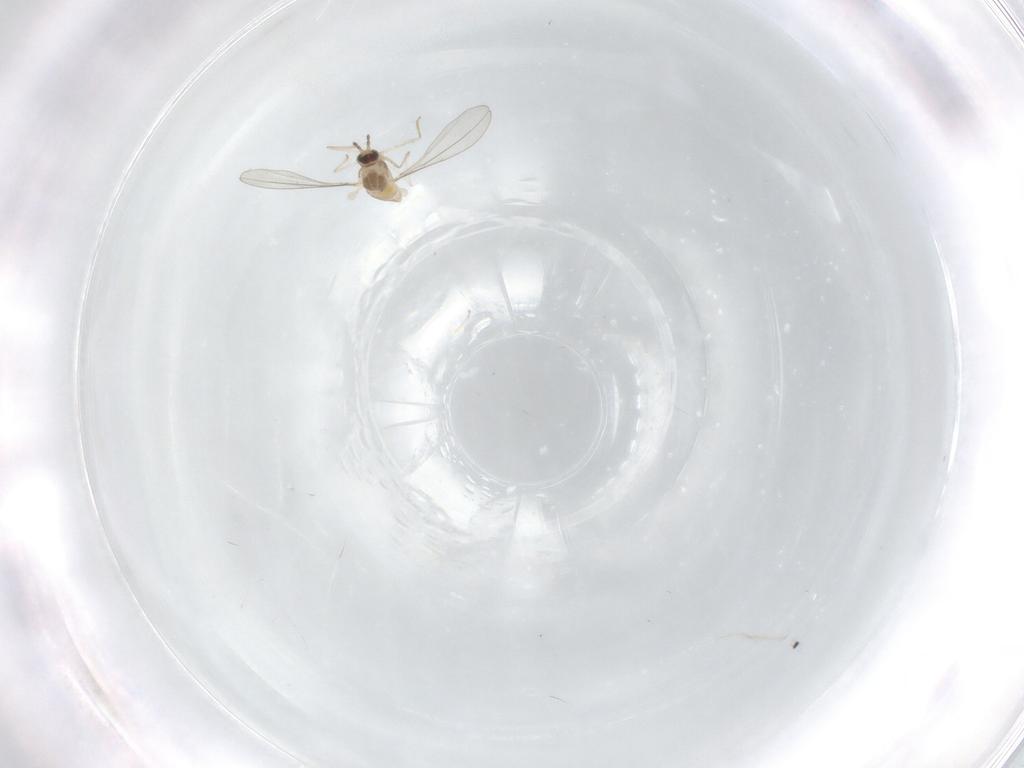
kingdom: Animalia
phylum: Arthropoda
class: Insecta
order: Diptera
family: Cecidomyiidae
